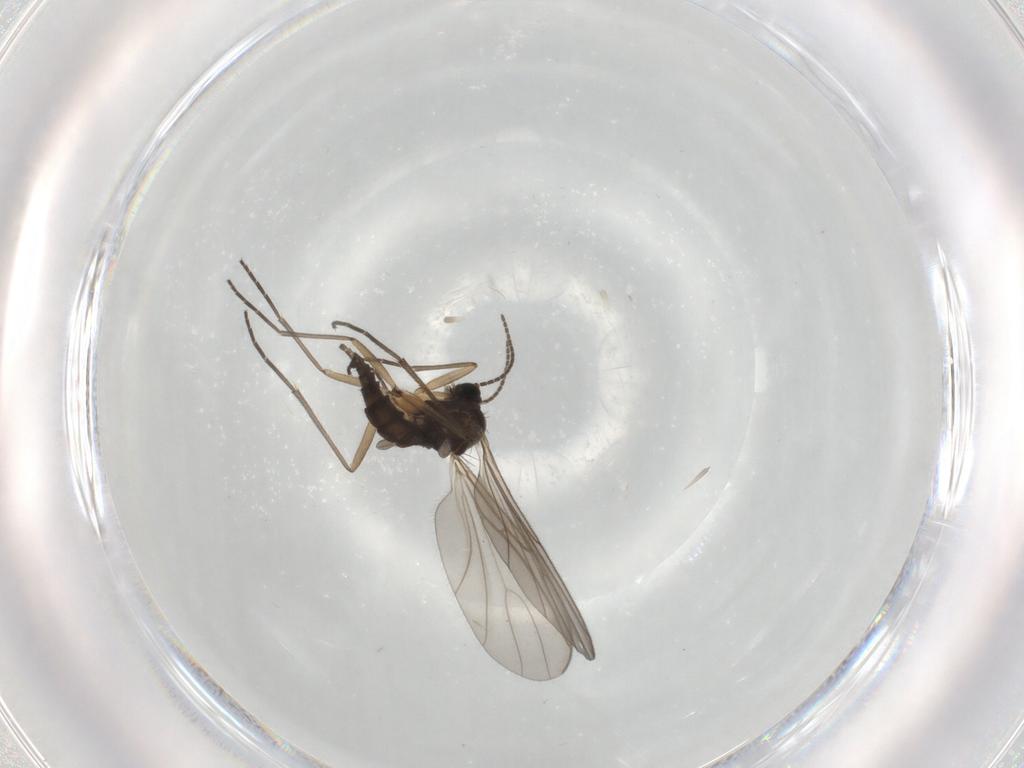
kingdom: Animalia
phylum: Arthropoda
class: Insecta
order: Diptera
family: Sciaridae
